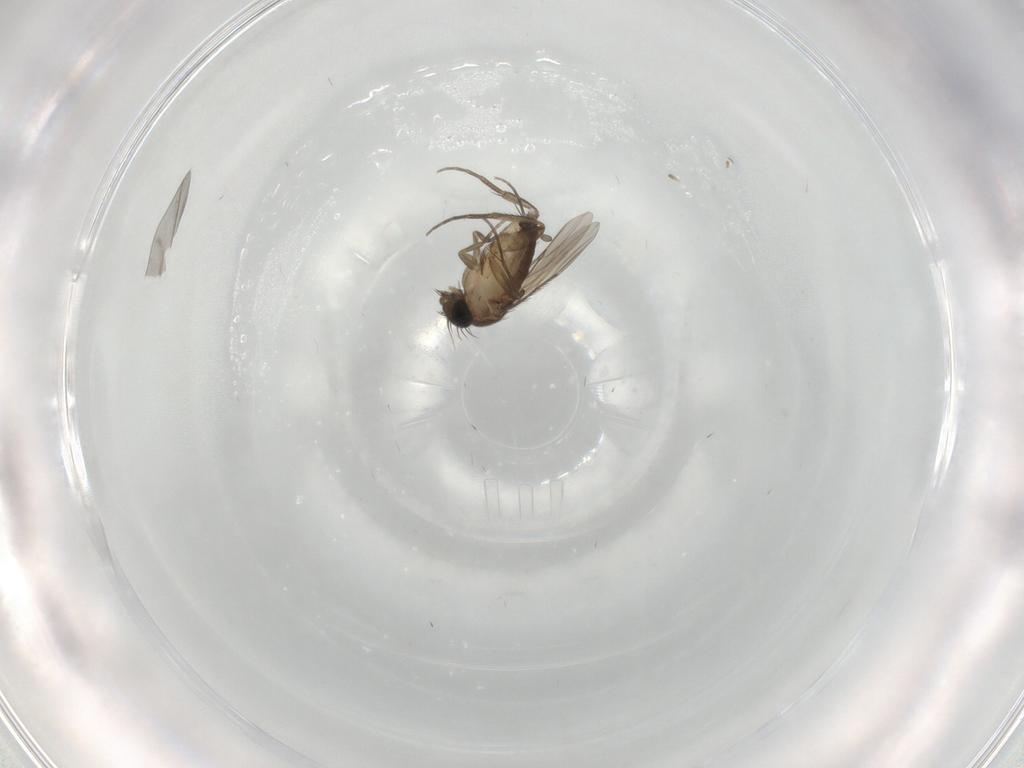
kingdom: Animalia
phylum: Arthropoda
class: Insecta
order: Diptera
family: Phoridae
